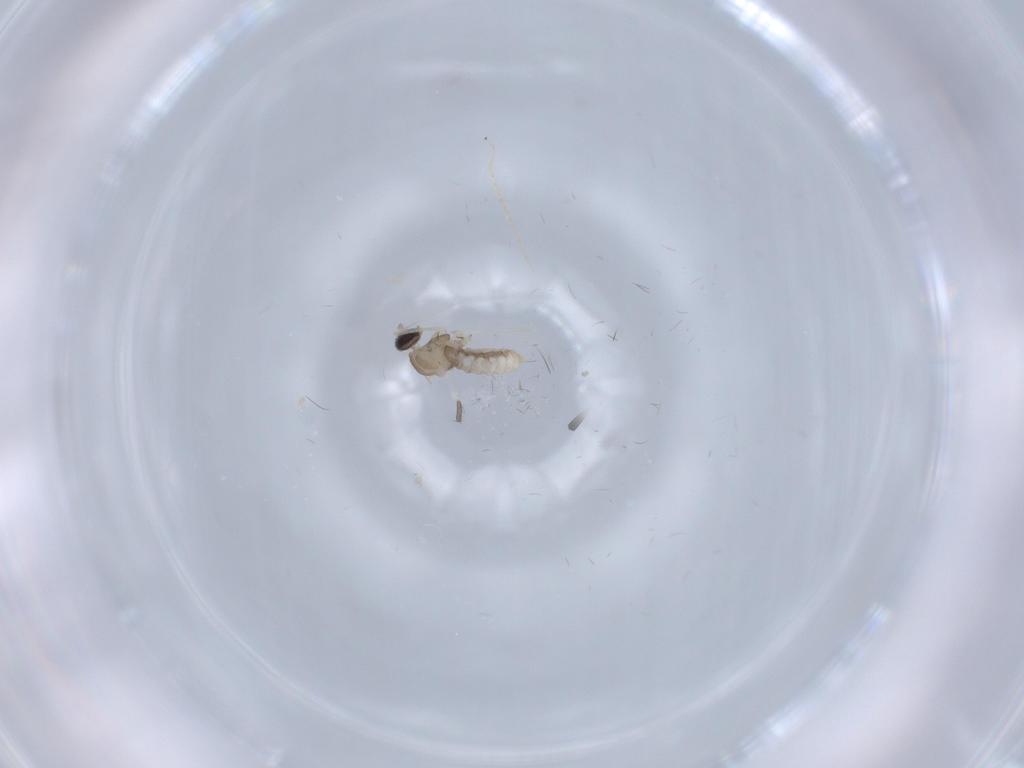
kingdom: Animalia
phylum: Arthropoda
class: Insecta
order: Diptera
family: Cecidomyiidae
